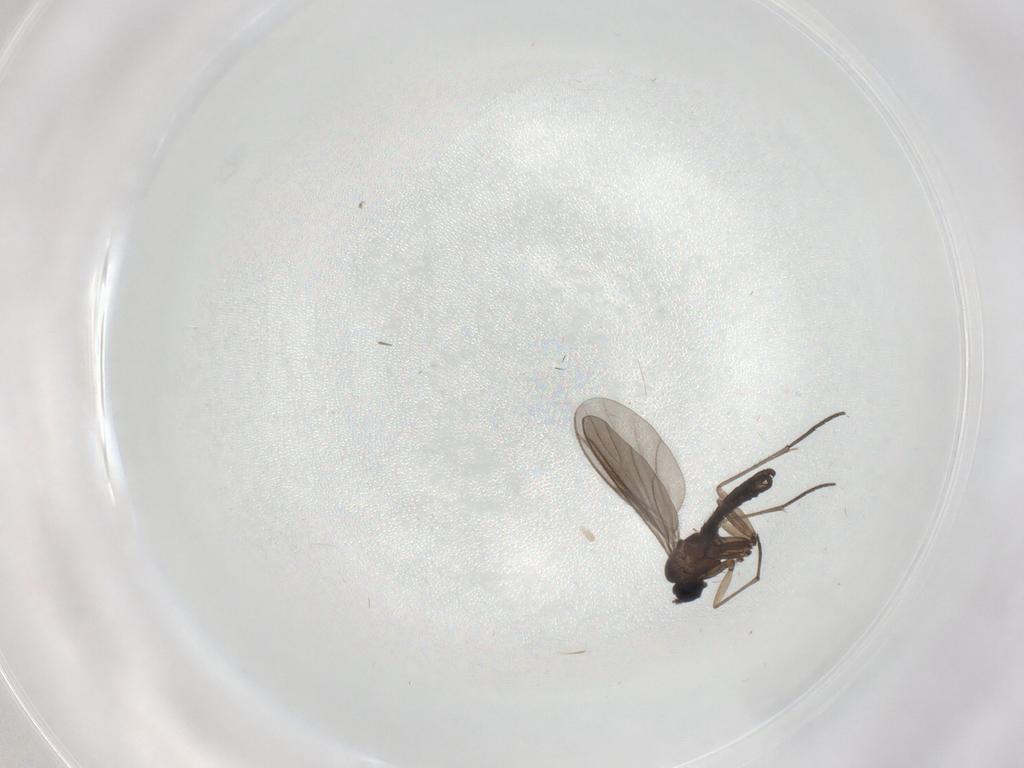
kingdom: Animalia
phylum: Arthropoda
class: Insecta
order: Diptera
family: Sciaridae
